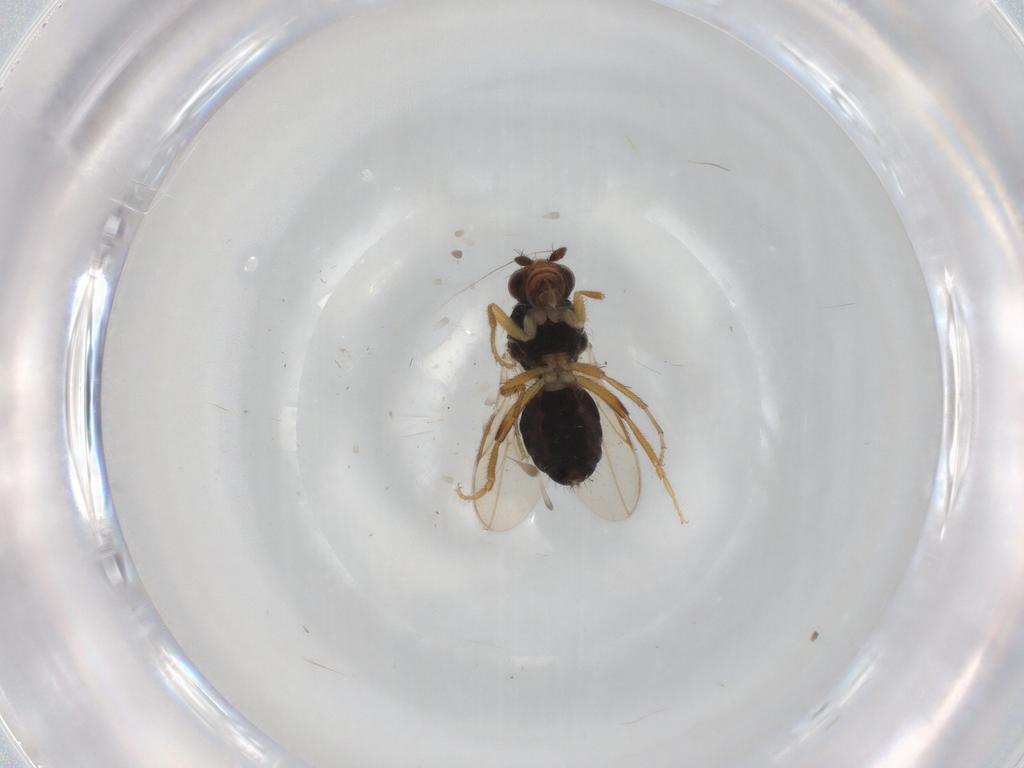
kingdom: Animalia
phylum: Arthropoda
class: Insecta
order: Diptera
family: Sphaeroceridae
